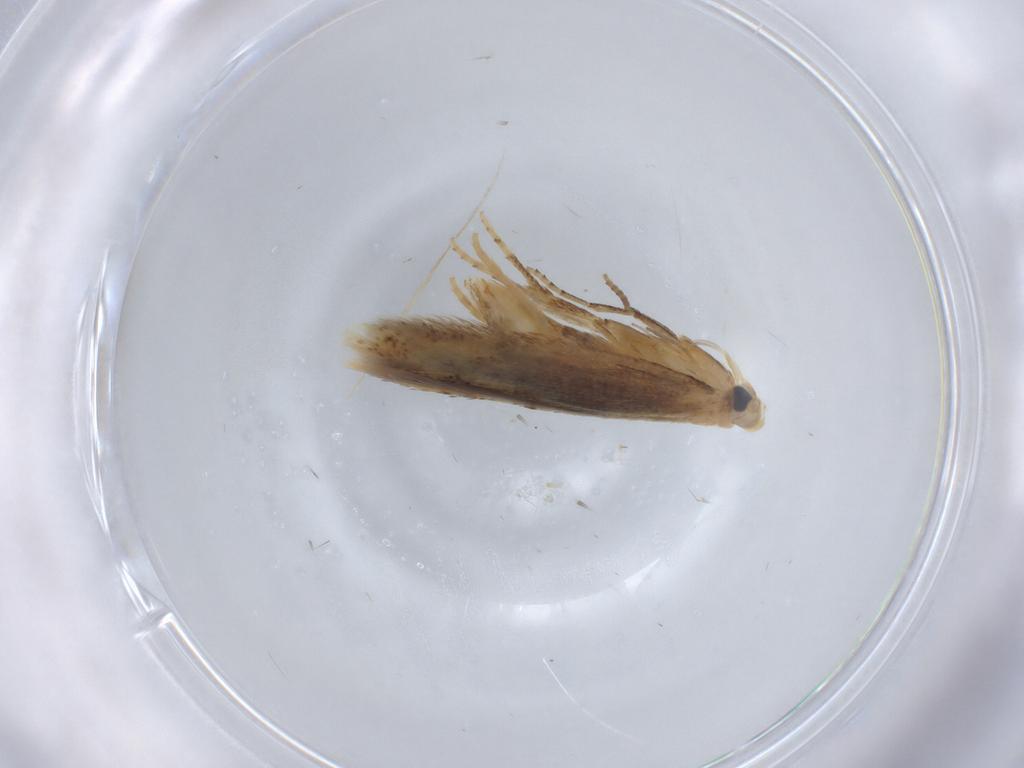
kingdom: Animalia
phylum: Arthropoda
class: Insecta
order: Lepidoptera
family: Tischeriidae
